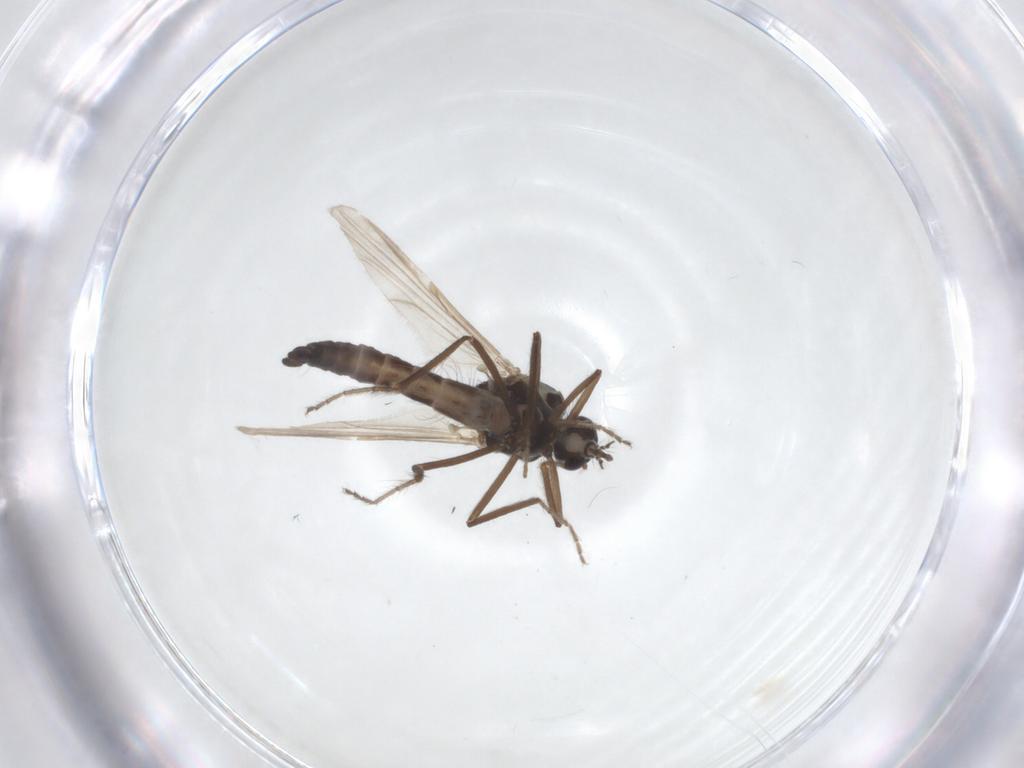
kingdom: Animalia
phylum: Arthropoda
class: Insecta
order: Diptera
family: Ceratopogonidae
